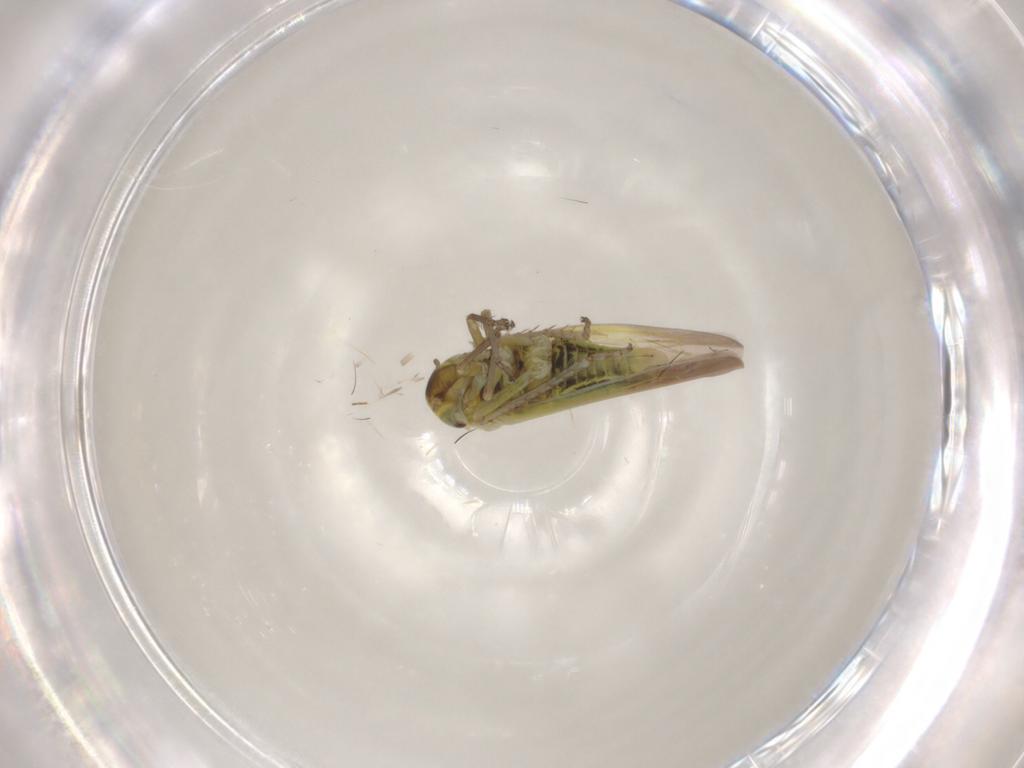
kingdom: Animalia
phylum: Arthropoda
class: Insecta
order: Hemiptera
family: Cicadellidae
